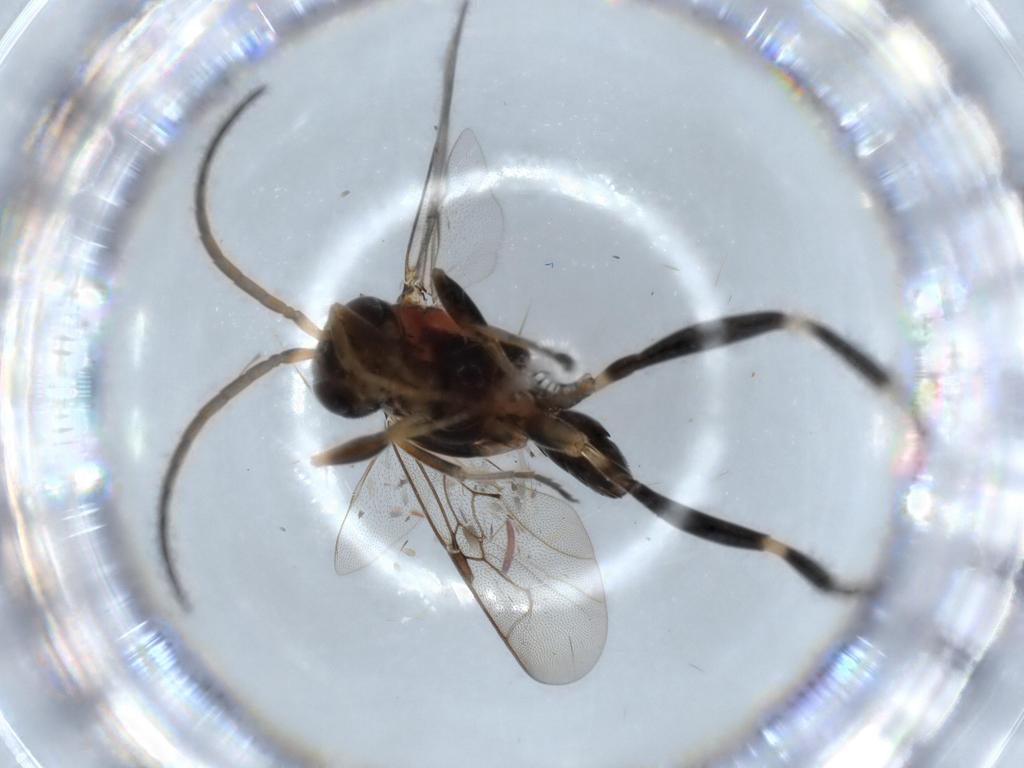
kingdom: Animalia
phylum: Arthropoda
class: Insecta
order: Hymenoptera
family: Evaniidae
